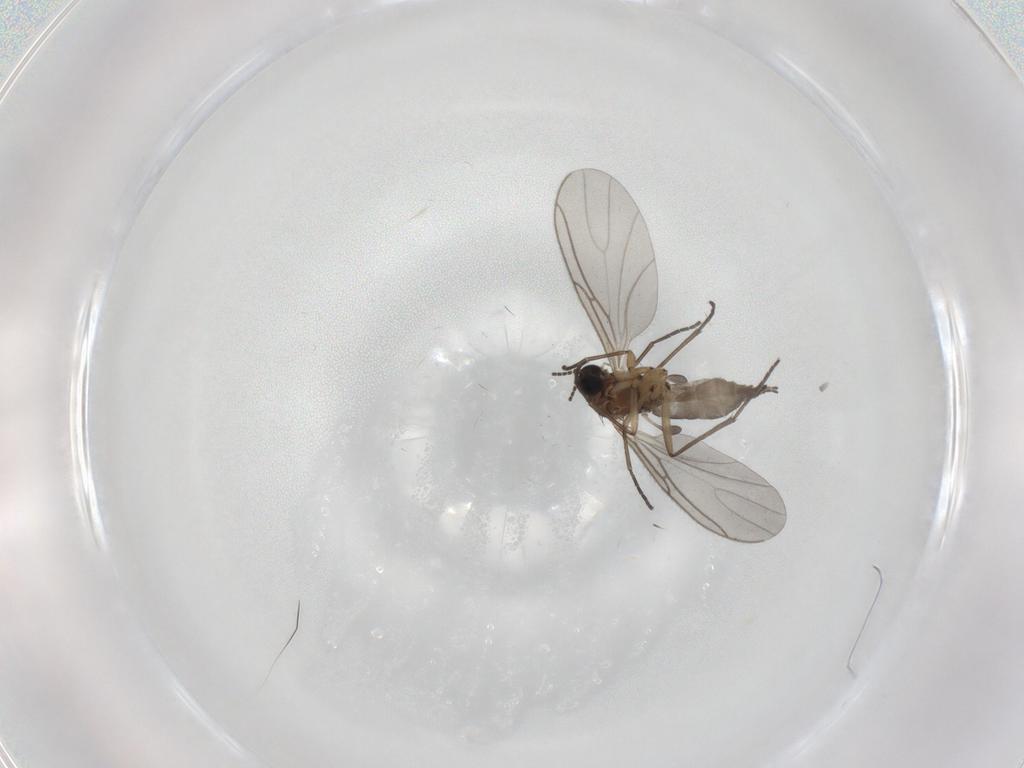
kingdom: Animalia
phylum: Arthropoda
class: Insecta
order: Diptera
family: Sciaridae
